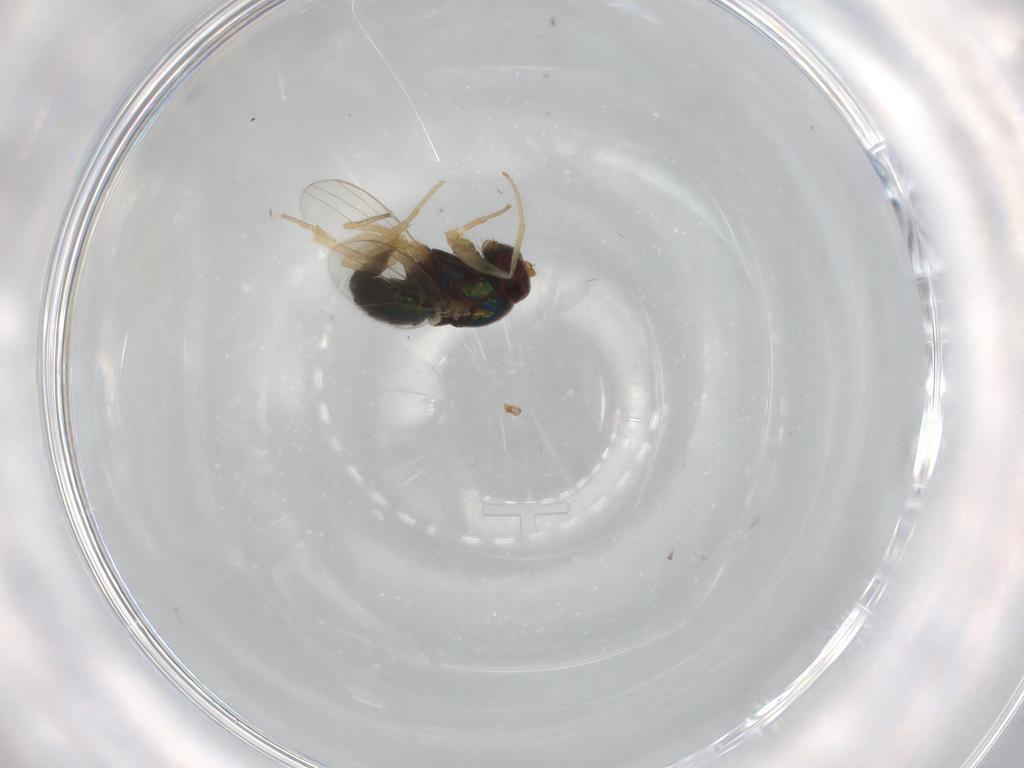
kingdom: Animalia
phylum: Arthropoda
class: Insecta
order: Diptera
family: Dolichopodidae
